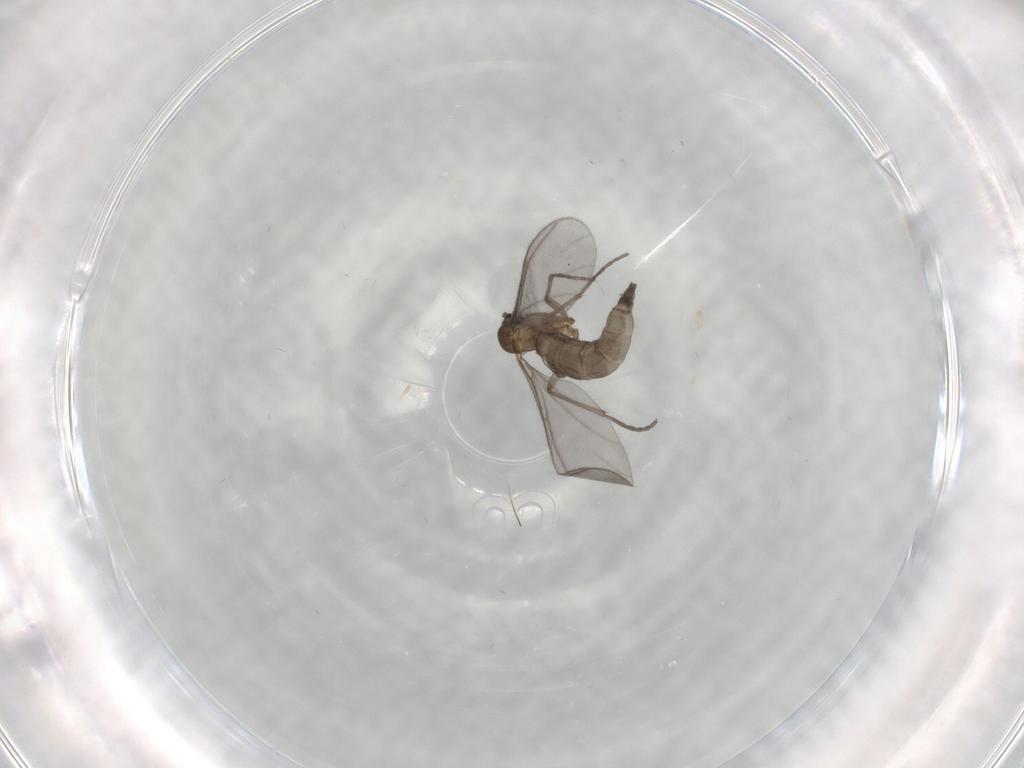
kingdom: Animalia
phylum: Arthropoda
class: Insecta
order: Diptera
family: Sciaridae
